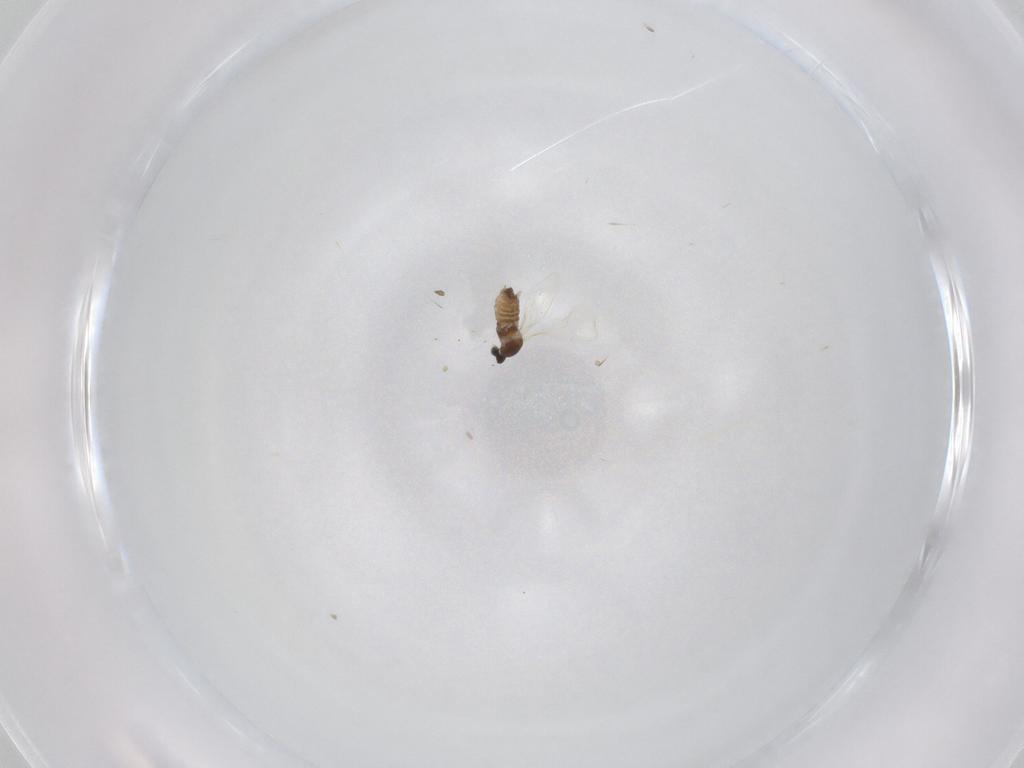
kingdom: Animalia
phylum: Arthropoda
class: Insecta
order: Diptera
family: Cecidomyiidae
